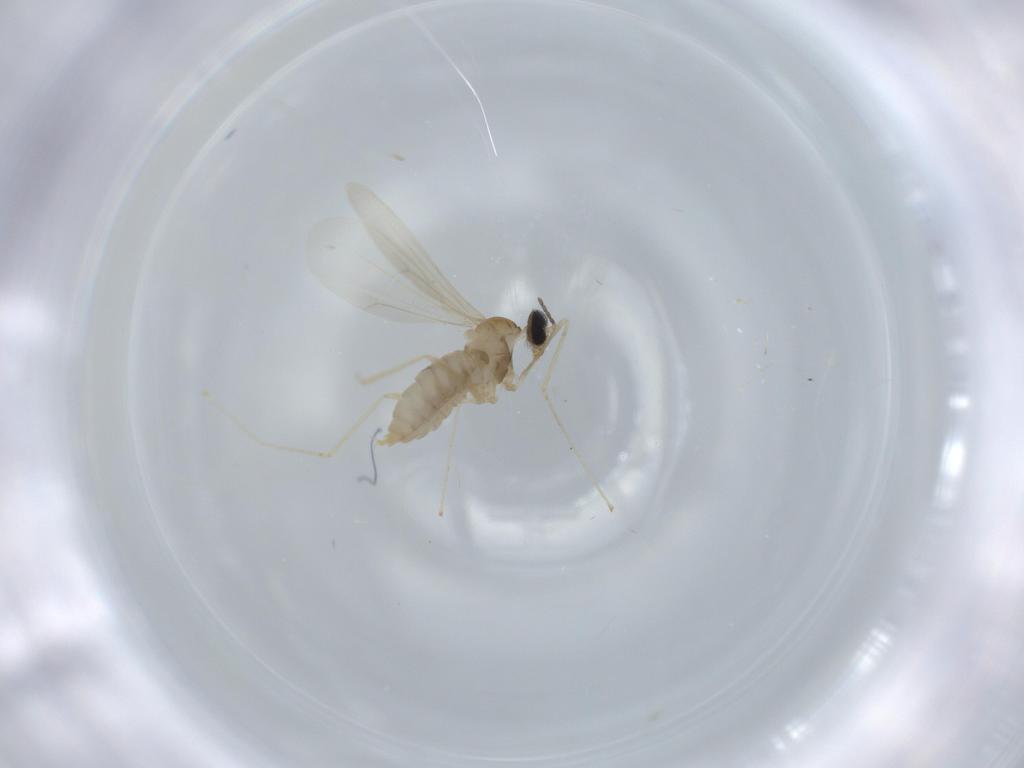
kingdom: Animalia
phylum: Arthropoda
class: Insecta
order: Diptera
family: Cecidomyiidae
